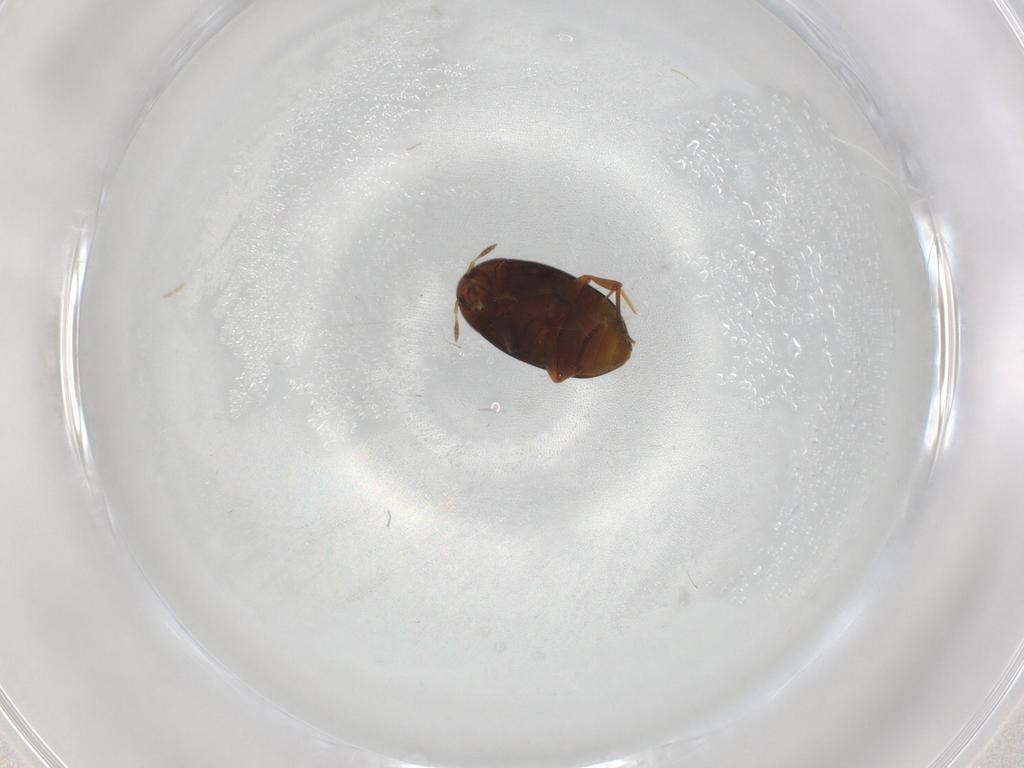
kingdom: Animalia
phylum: Arthropoda
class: Insecta
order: Coleoptera
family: Melandryidae
